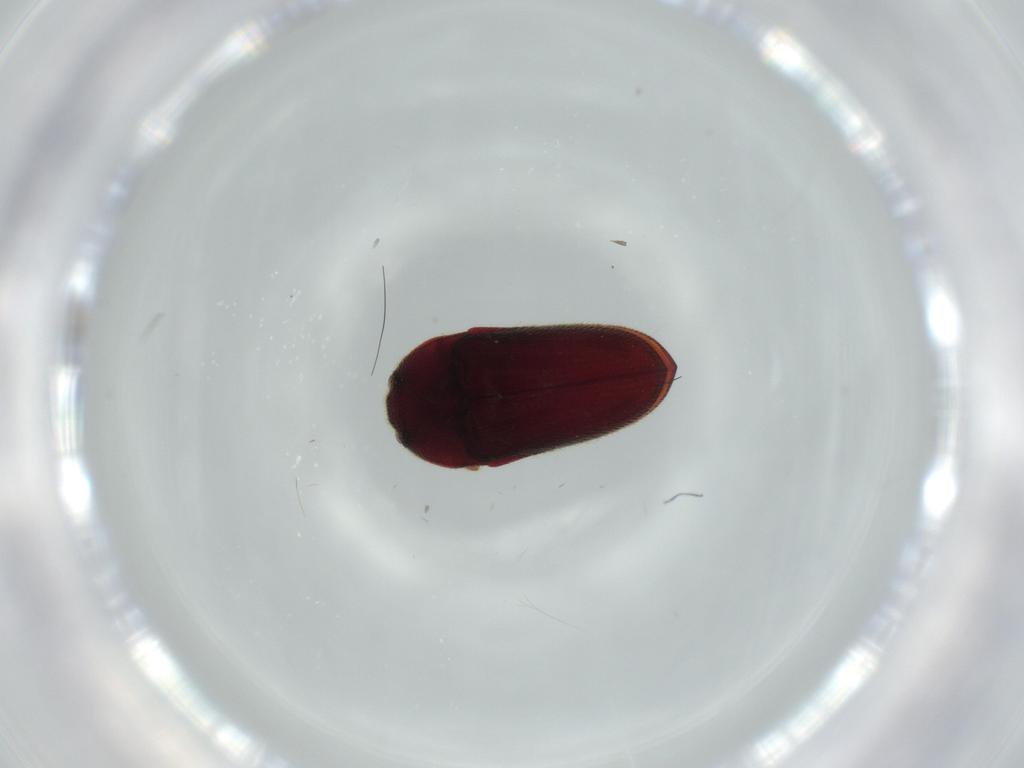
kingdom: Animalia
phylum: Arthropoda
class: Insecta
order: Coleoptera
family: Throscidae
